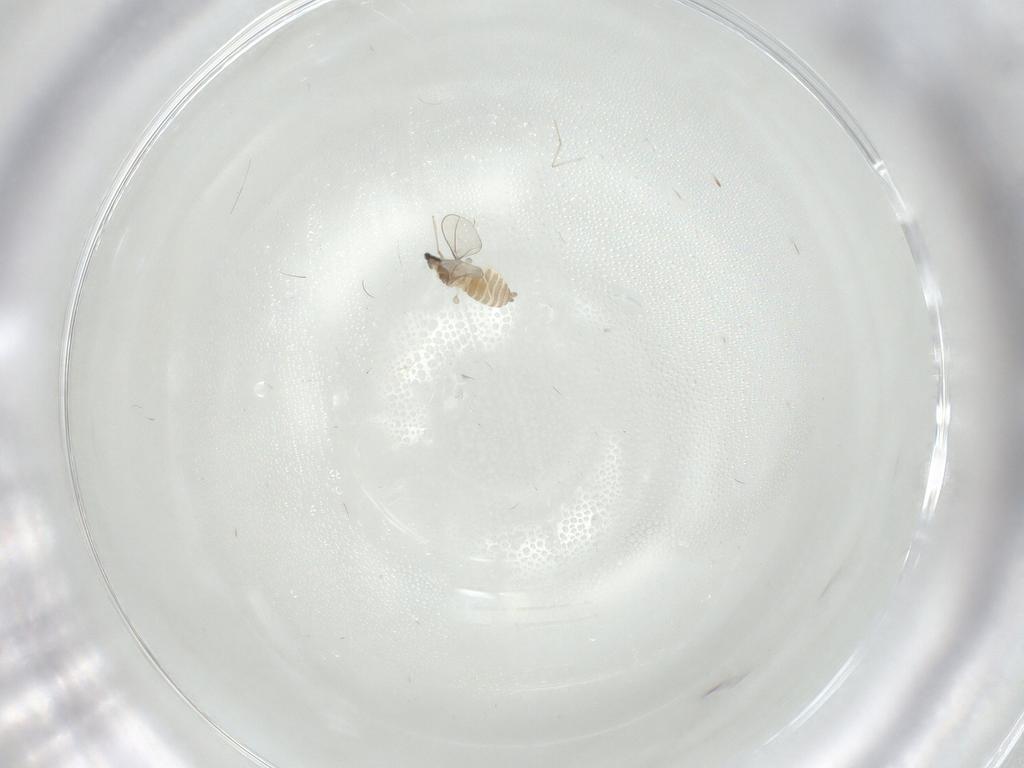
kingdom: Animalia
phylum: Arthropoda
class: Insecta
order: Diptera
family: Cecidomyiidae
